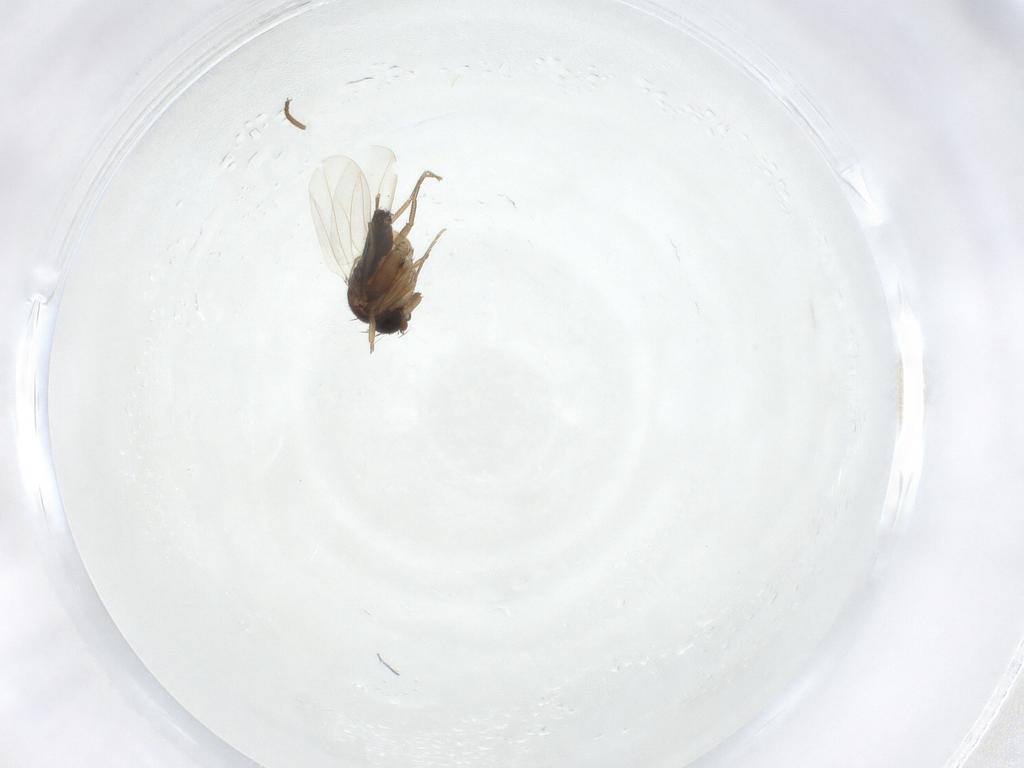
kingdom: Animalia
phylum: Arthropoda
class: Insecta
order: Diptera
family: Phoridae
